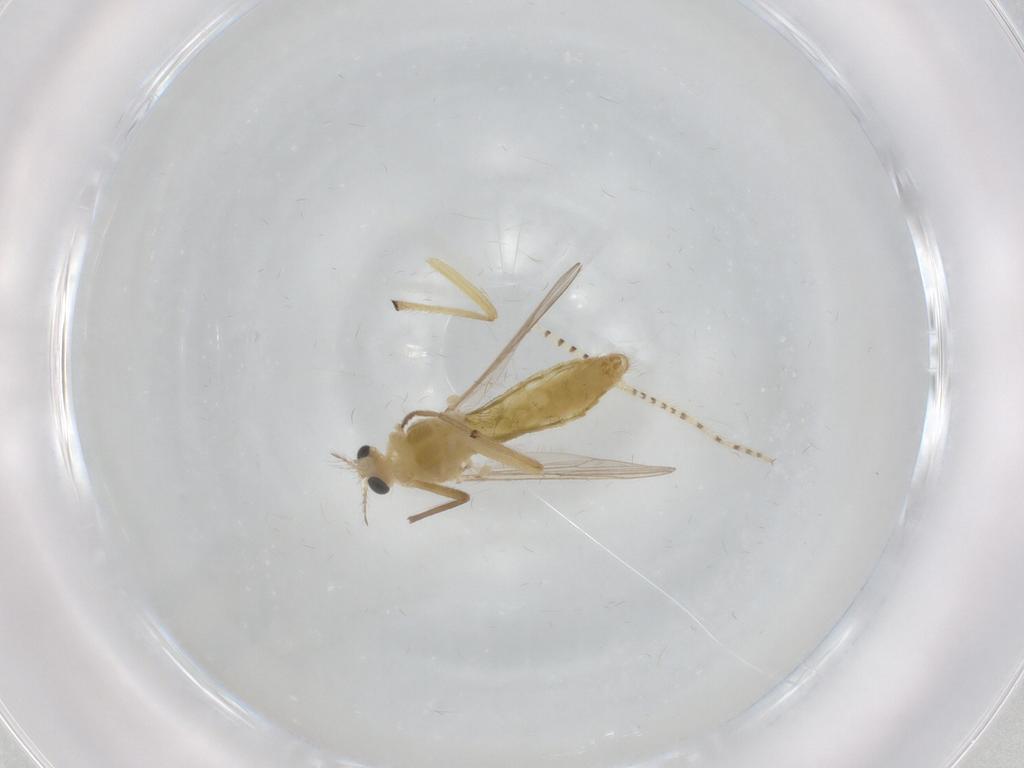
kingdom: Animalia
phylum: Arthropoda
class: Insecta
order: Diptera
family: Chironomidae
